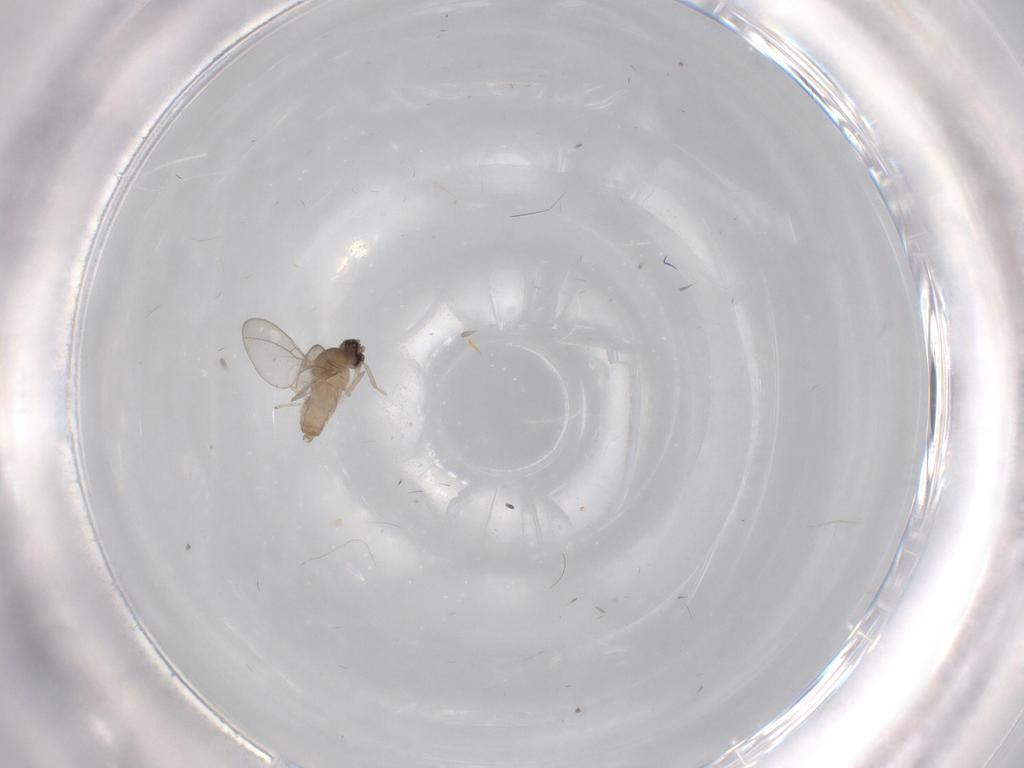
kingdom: Animalia
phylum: Arthropoda
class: Insecta
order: Diptera
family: Cecidomyiidae
